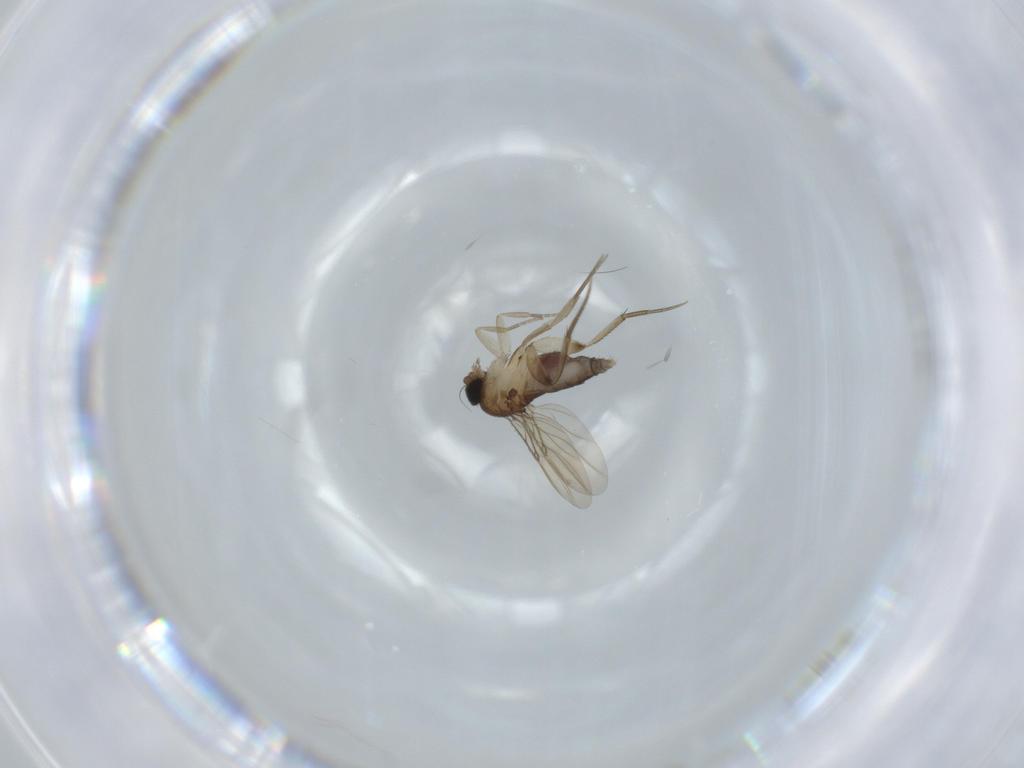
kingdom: Animalia
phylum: Arthropoda
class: Insecta
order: Diptera
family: Phoridae
